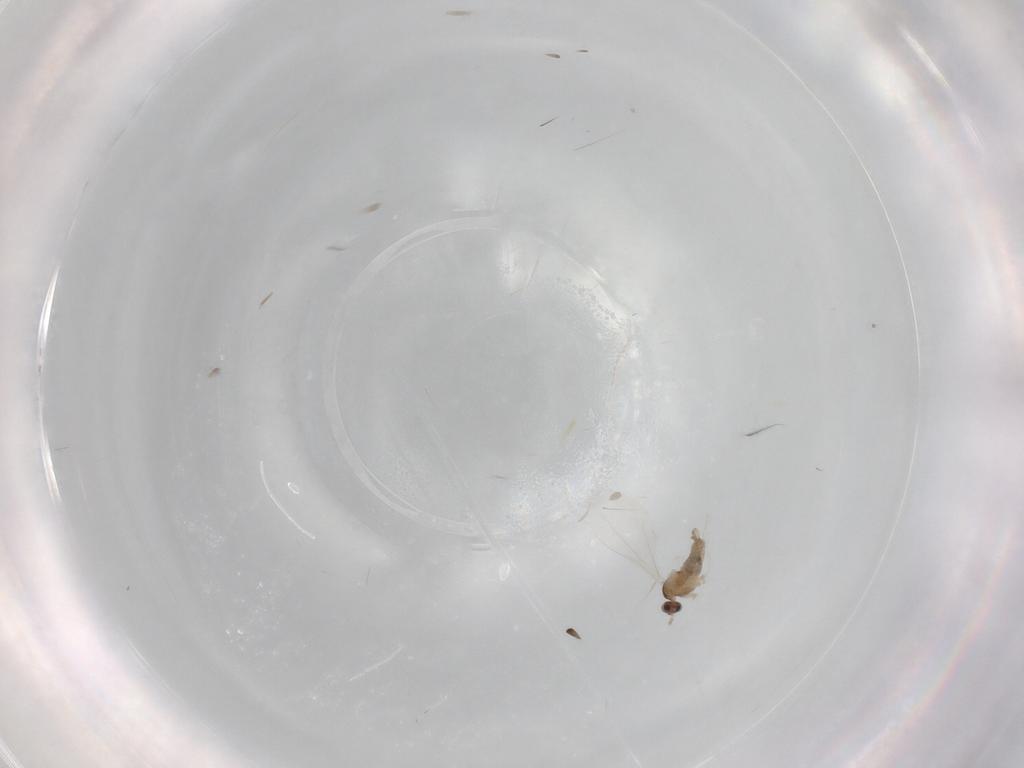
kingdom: Animalia
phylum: Arthropoda
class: Insecta
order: Diptera
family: Cecidomyiidae
